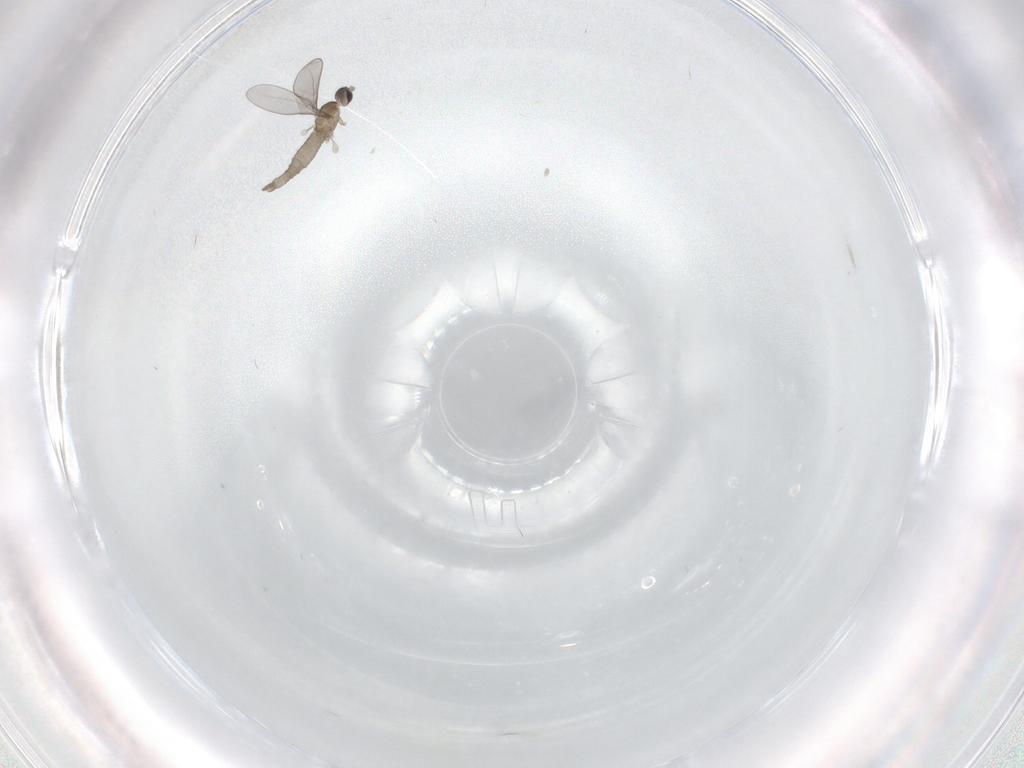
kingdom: Animalia
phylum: Arthropoda
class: Insecta
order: Diptera
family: Cecidomyiidae
